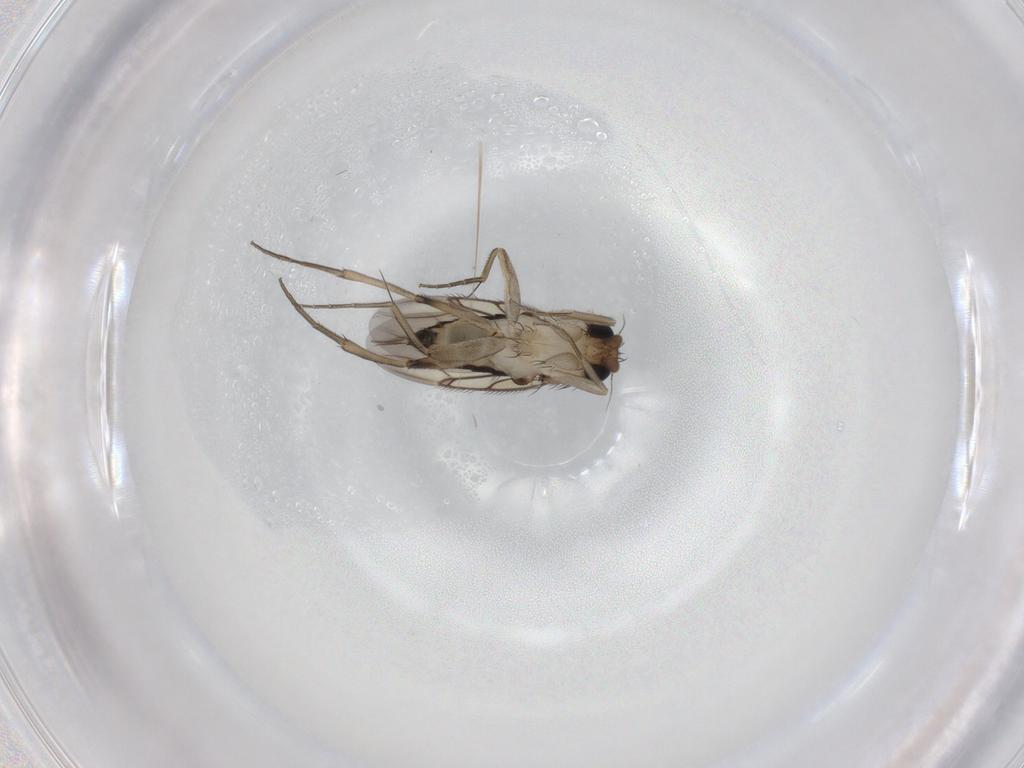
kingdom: Animalia
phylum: Arthropoda
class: Insecta
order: Diptera
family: Phoridae
